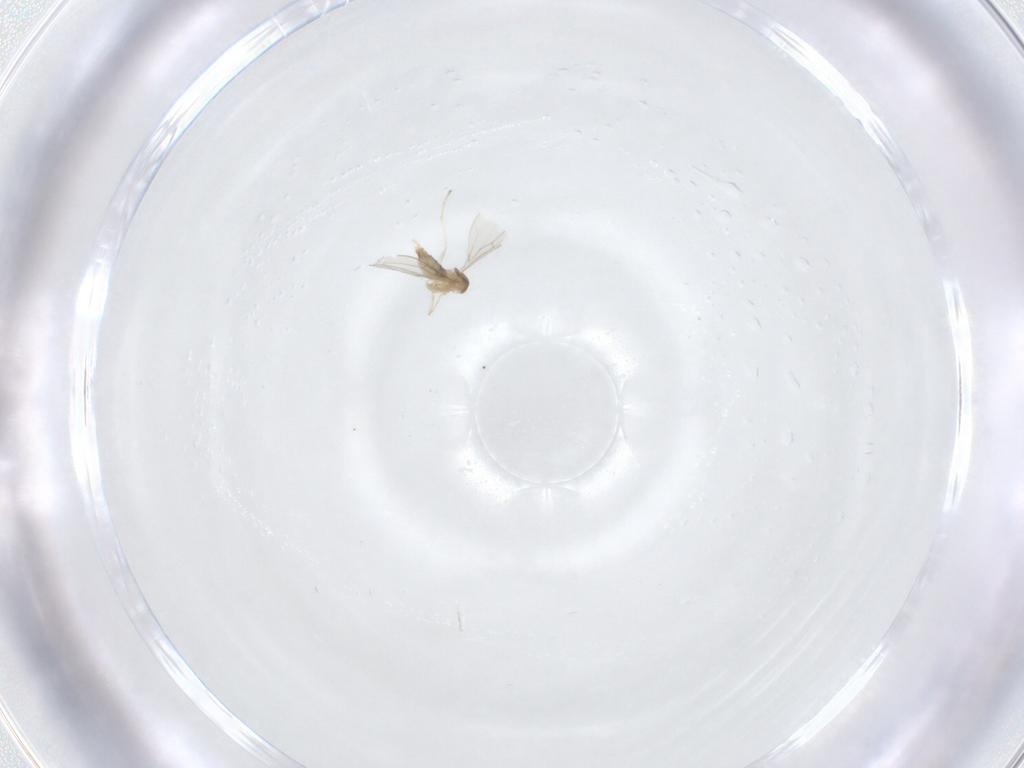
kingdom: Animalia
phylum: Arthropoda
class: Insecta
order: Diptera
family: Cecidomyiidae
